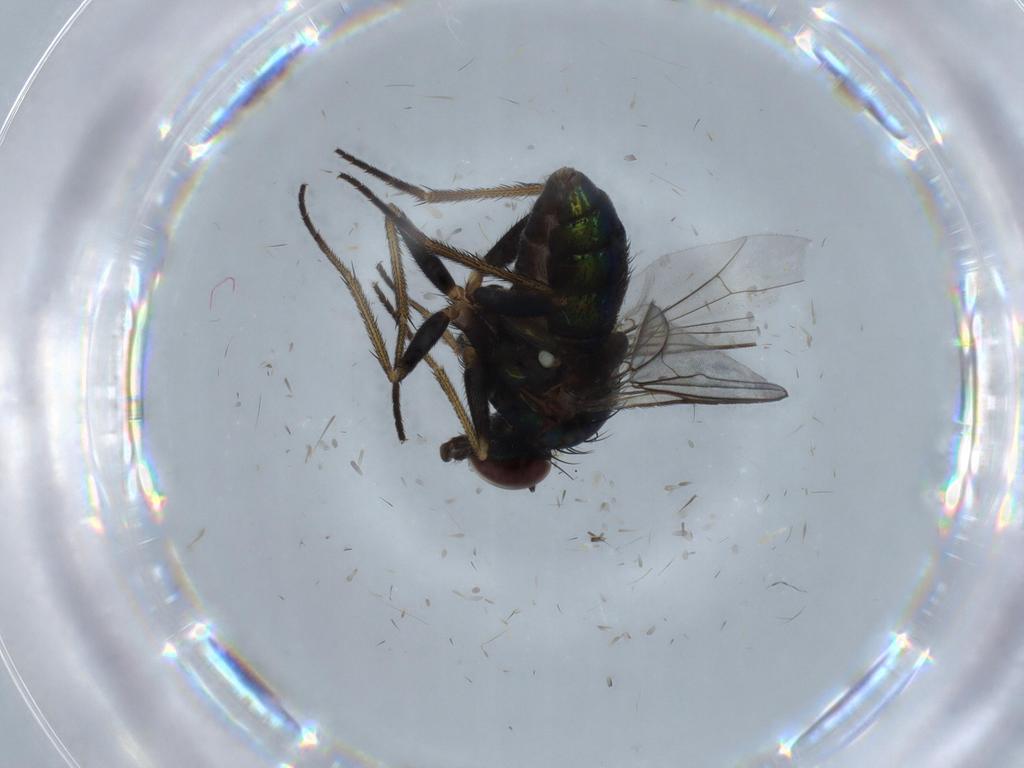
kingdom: Animalia
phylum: Arthropoda
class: Insecta
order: Diptera
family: Dolichopodidae
